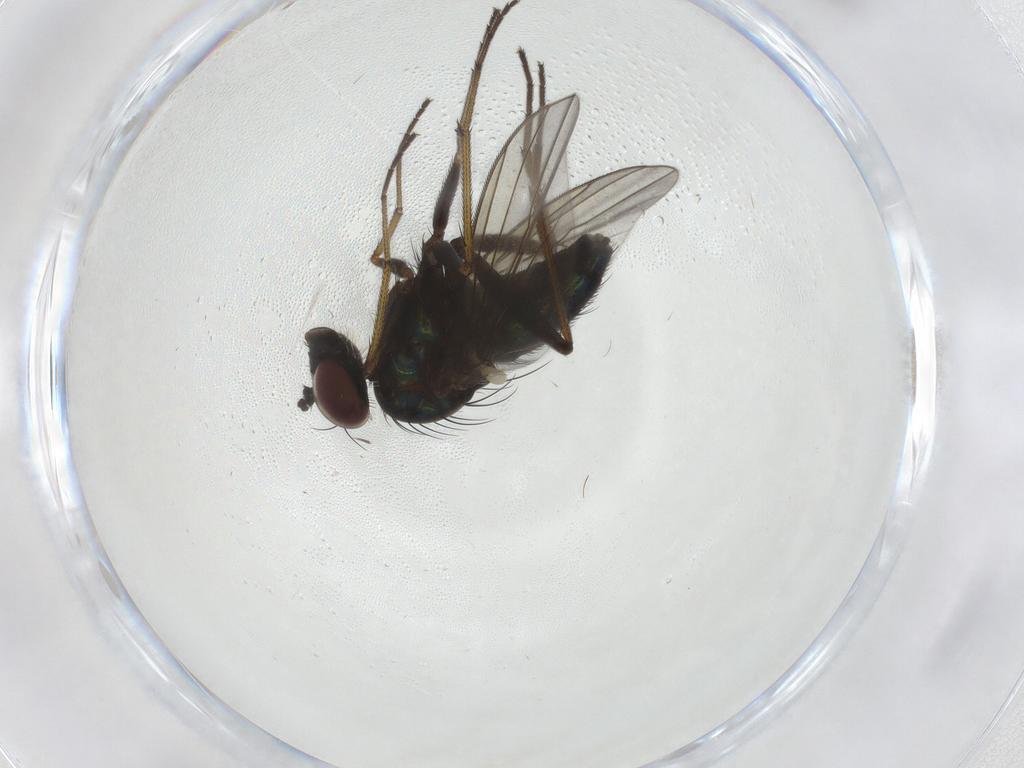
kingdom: Animalia
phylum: Arthropoda
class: Insecta
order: Diptera
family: Dolichopodidae
